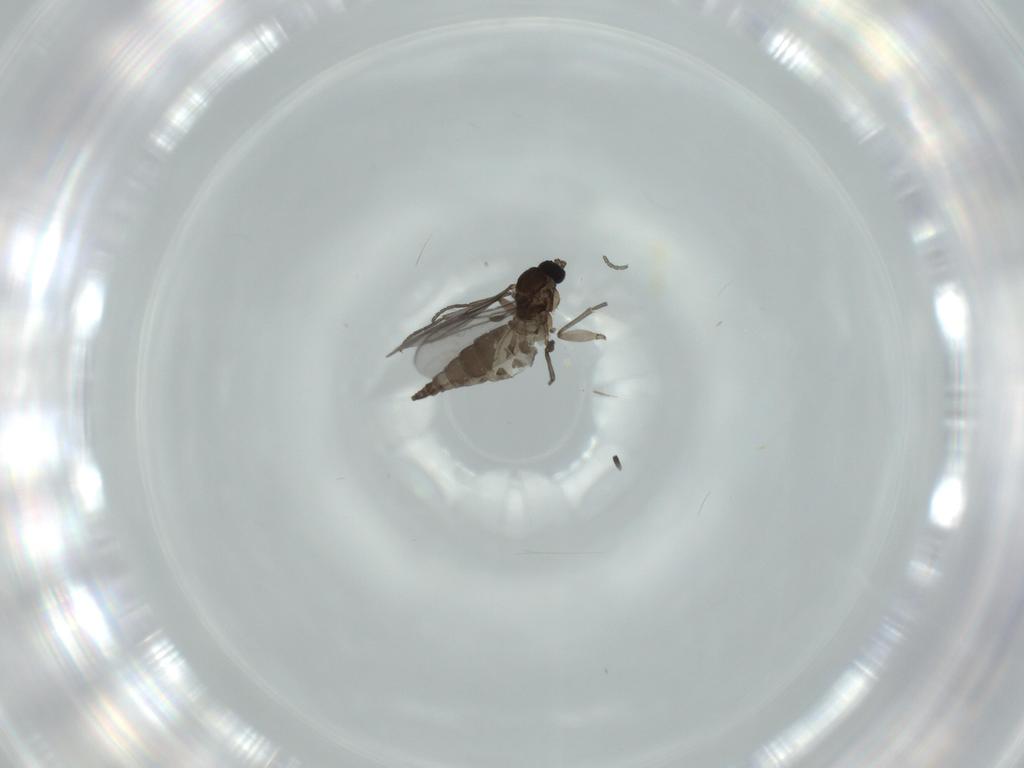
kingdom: Animalia
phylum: Arthropoda
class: Insecta
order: Diptera
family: Dolichopodidae
